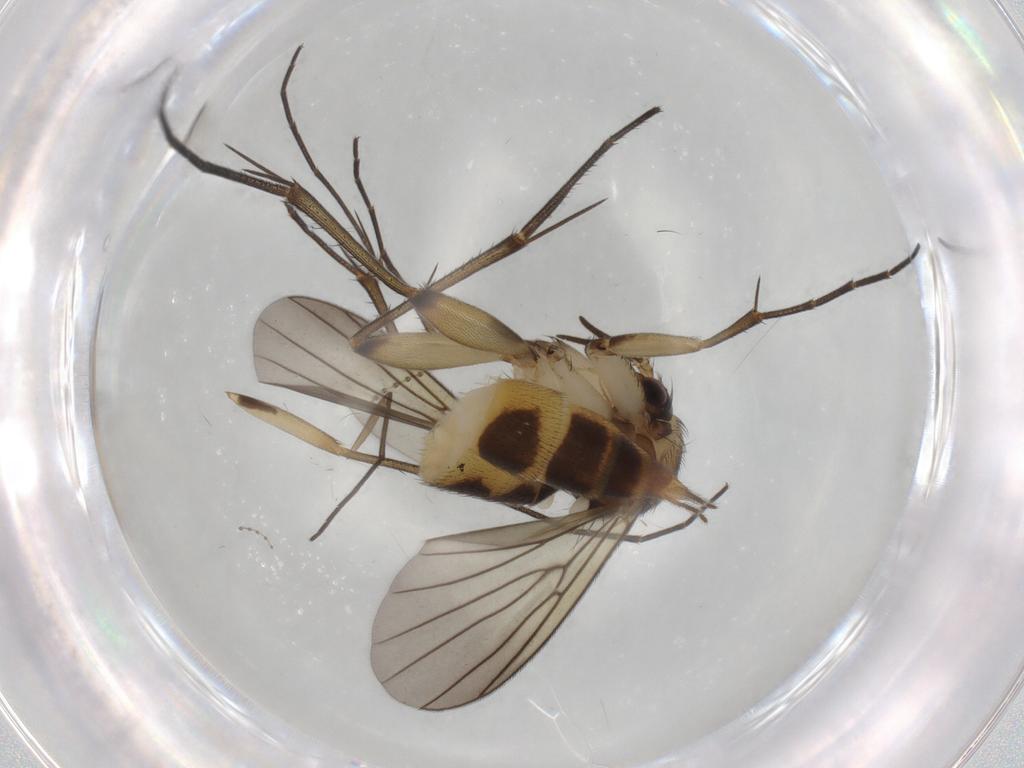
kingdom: Animalia
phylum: Arthropoda
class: Insecta
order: Diptera
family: Mycetophilidae
